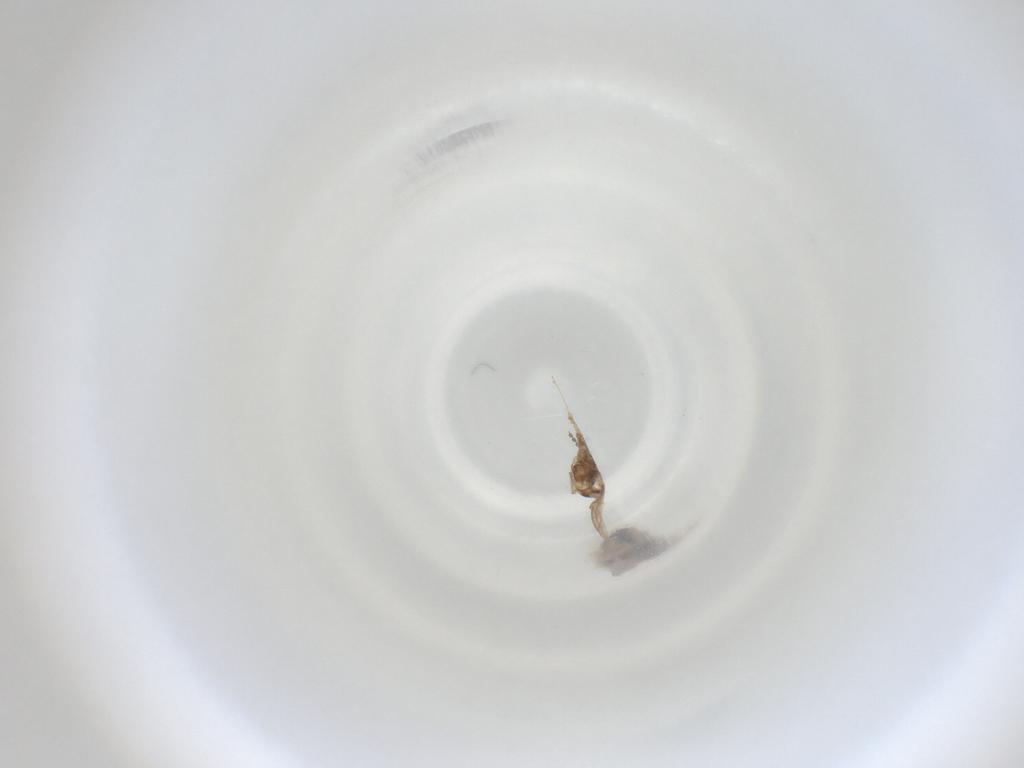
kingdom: Animalia
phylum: Arthropoda
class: Insecta
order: Diptera
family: Cecidomyiidae
